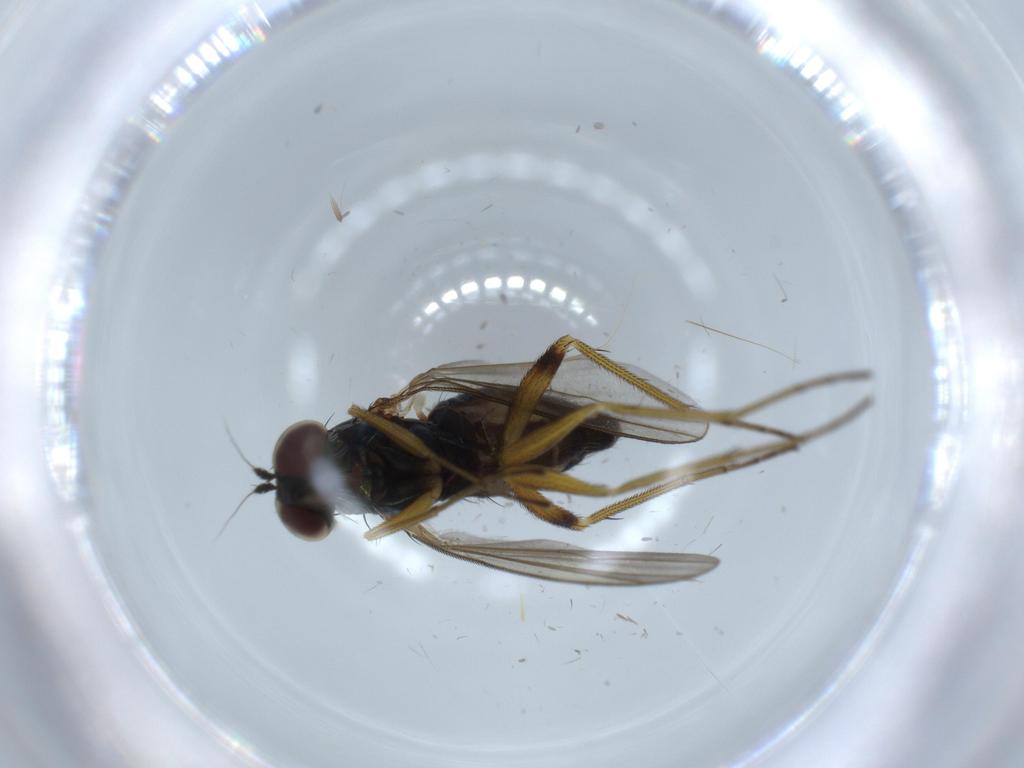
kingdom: Animalia
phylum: Arthropoda
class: Insecta
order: Diptera
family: Dolichopodidae
